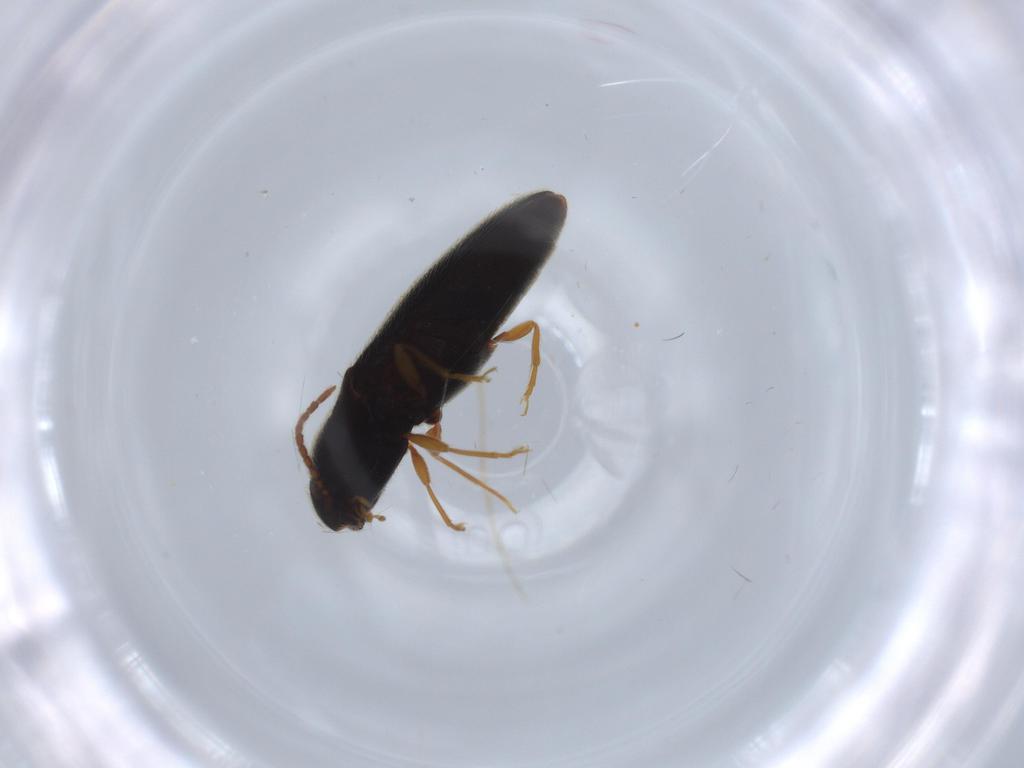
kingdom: Animalia
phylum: Arthropoda
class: Insecta
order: Coleoptera
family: Elateridae
